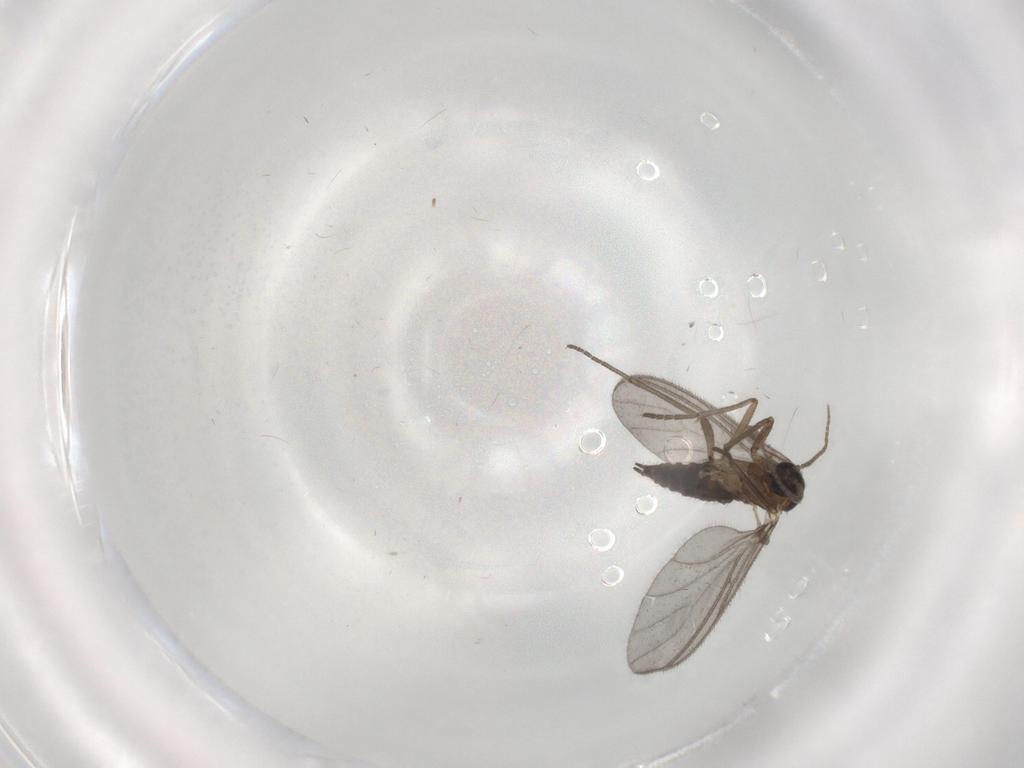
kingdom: Animalia
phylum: Arthropoda
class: Insecta
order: Diptera
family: Sciaridae
